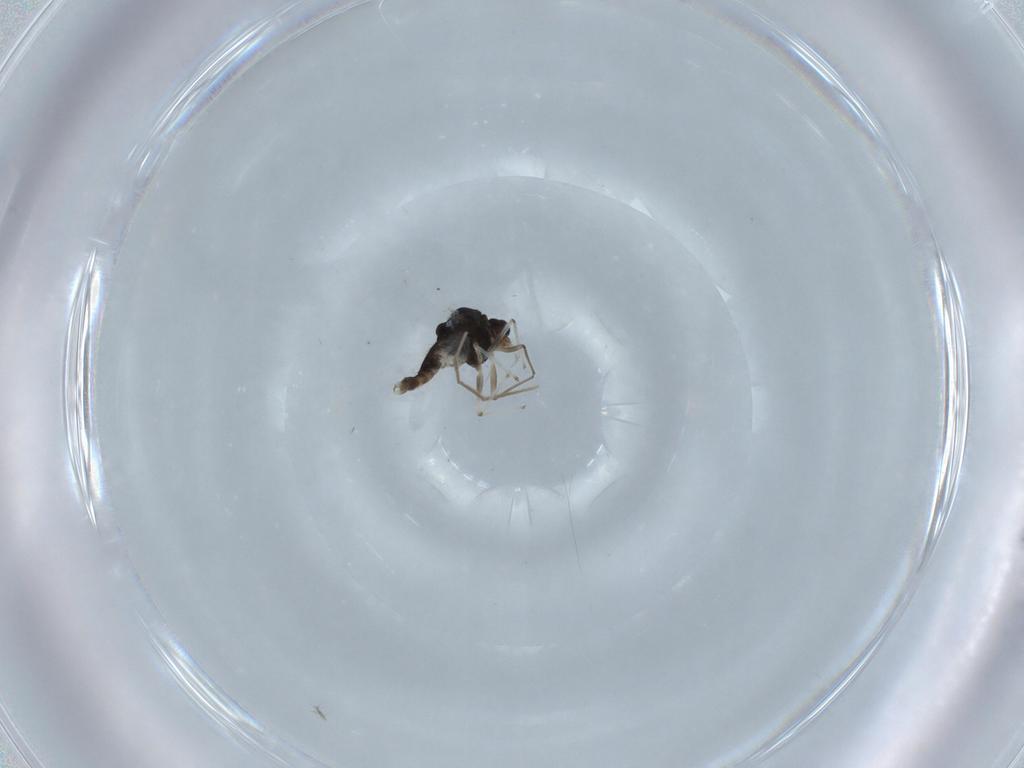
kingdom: Animalia
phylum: Arthropoda
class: Insecta
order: Diptera
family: Chironomidae
